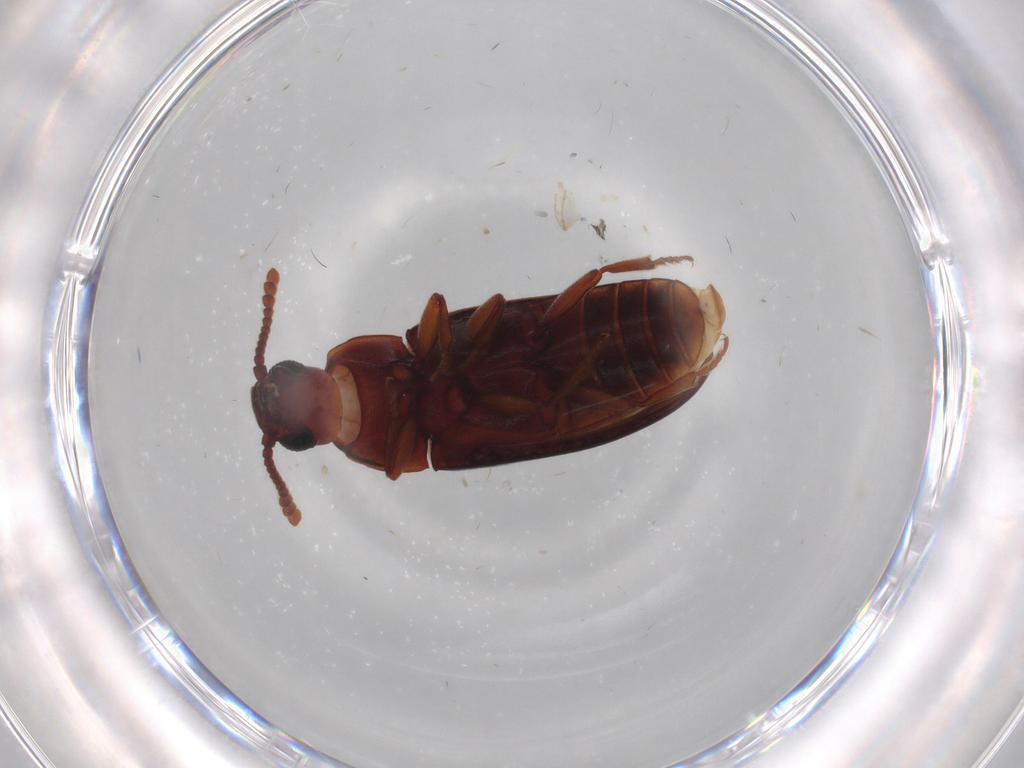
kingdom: Animalia
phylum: Arthropoda
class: Insecta
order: Coleoptera
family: Erotylidae
